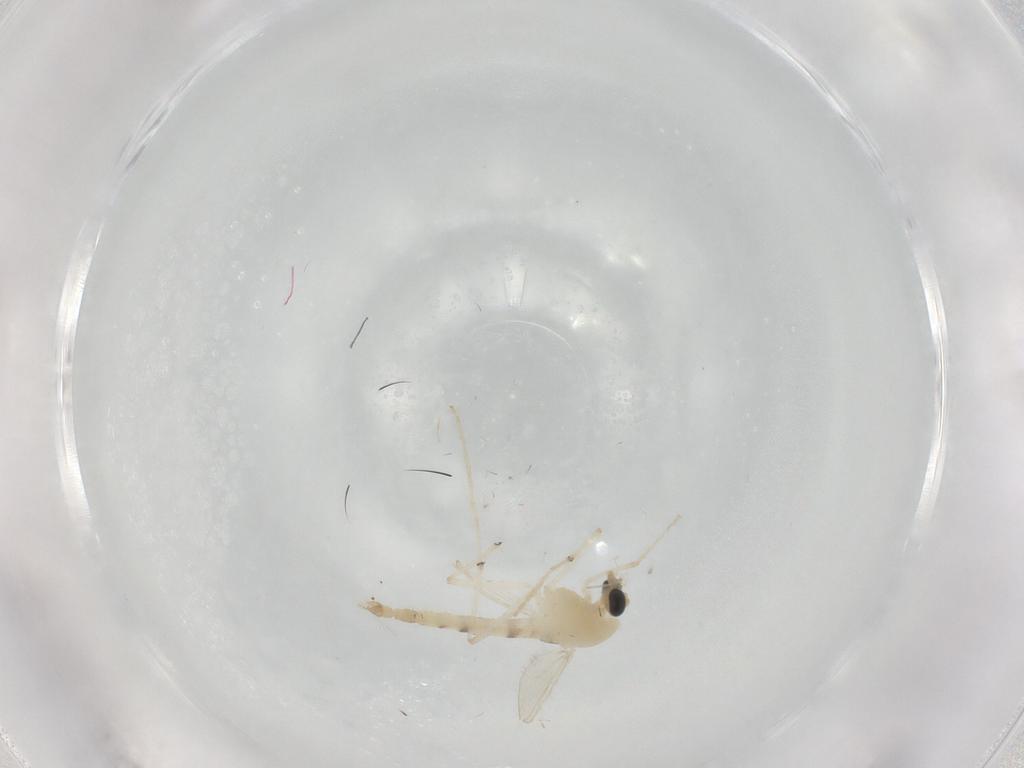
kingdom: Animalia
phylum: Arthropoda
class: Insecta
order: Diptera
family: Chironomidae
